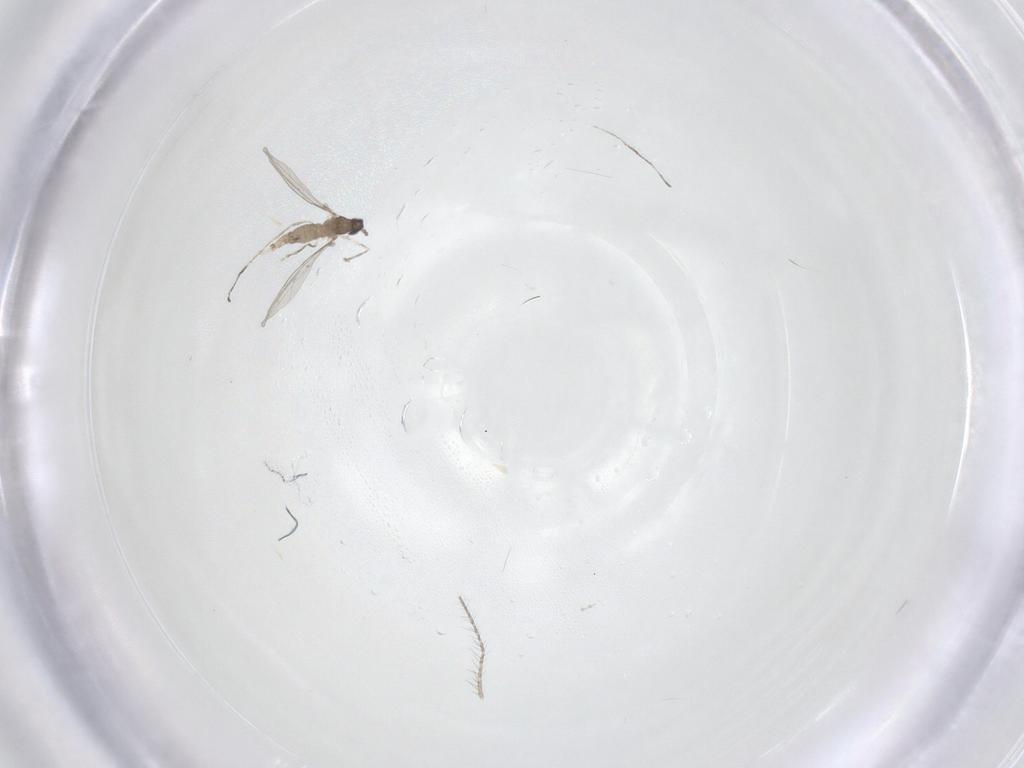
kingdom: Animalia
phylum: Arthropoda
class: Insecta
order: Diptera
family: Cecidomyiidae
